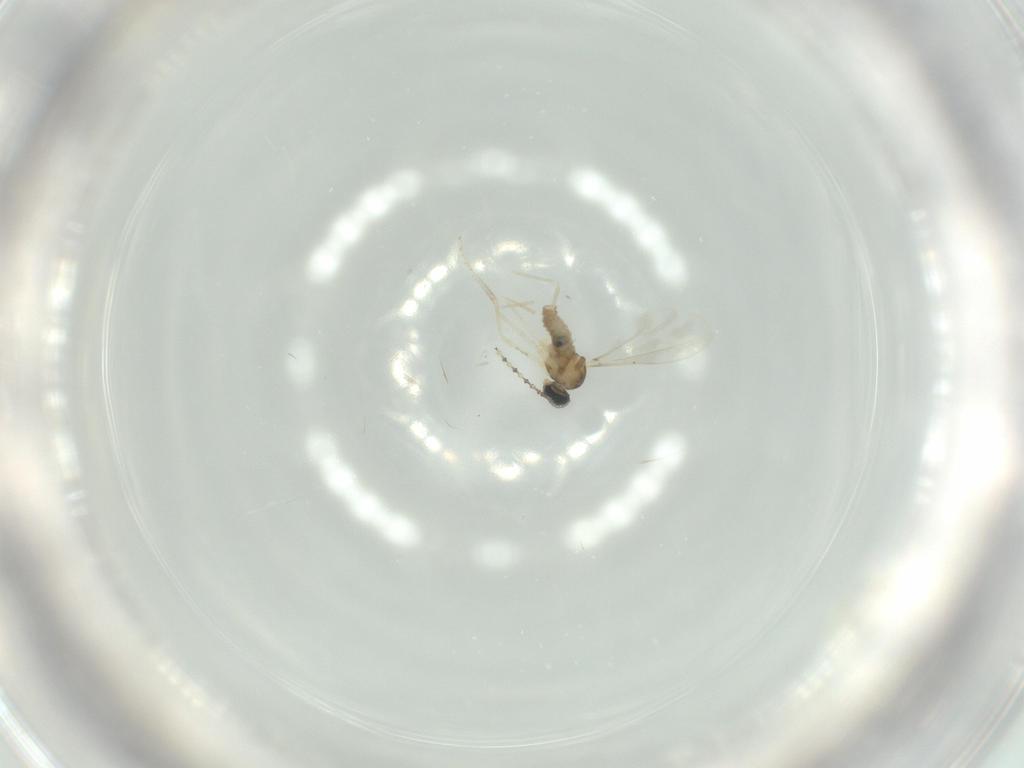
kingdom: Animalia
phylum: Arthropoda
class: Insecta
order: Diptera
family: Cecidomyiidae
